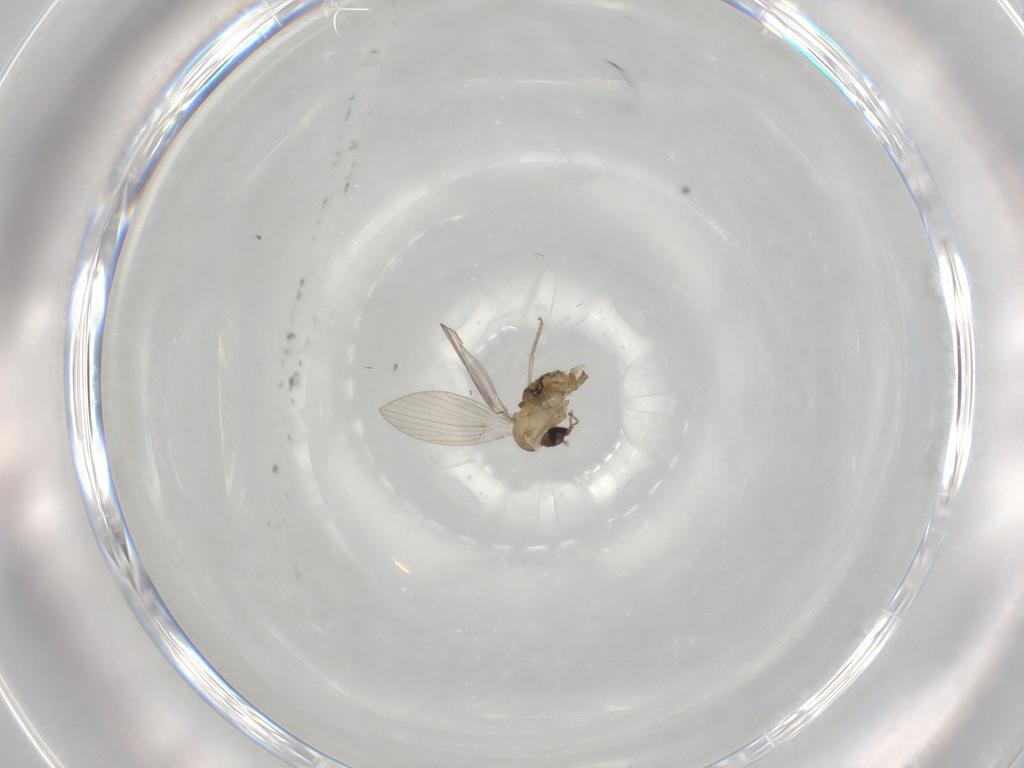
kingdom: Animalia
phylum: Arthropoda
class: Insecta
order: Diptera
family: Psychodidae
